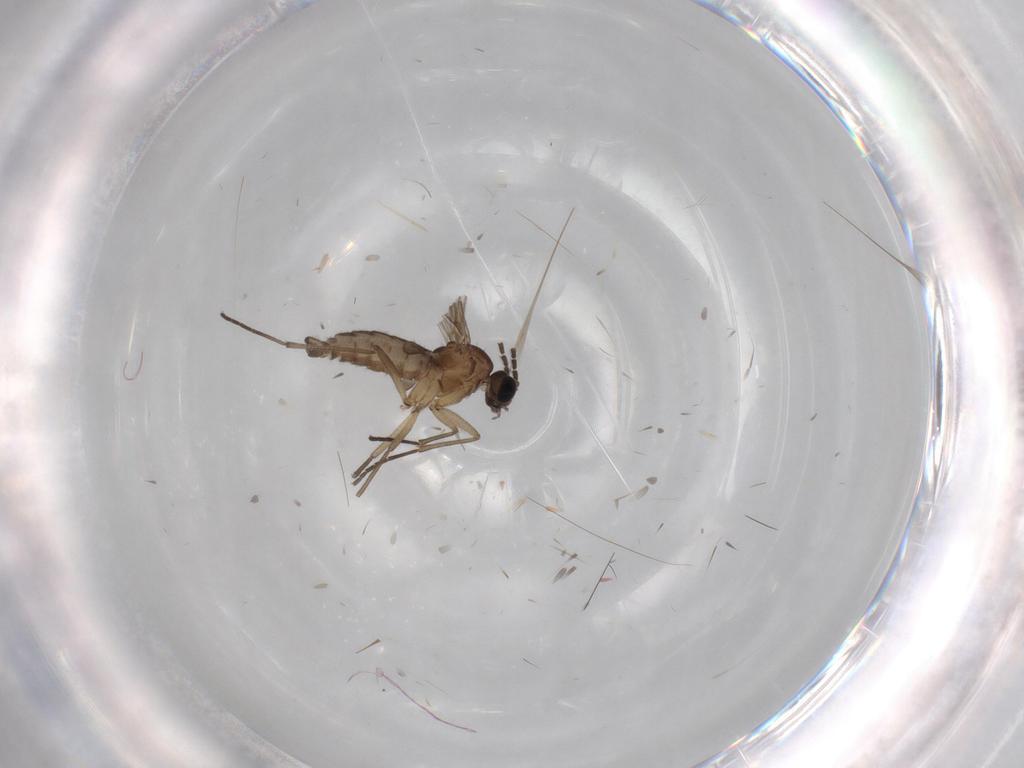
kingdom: Animalia
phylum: Arthropoda
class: Insecta
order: Diptera
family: Sciaridae
